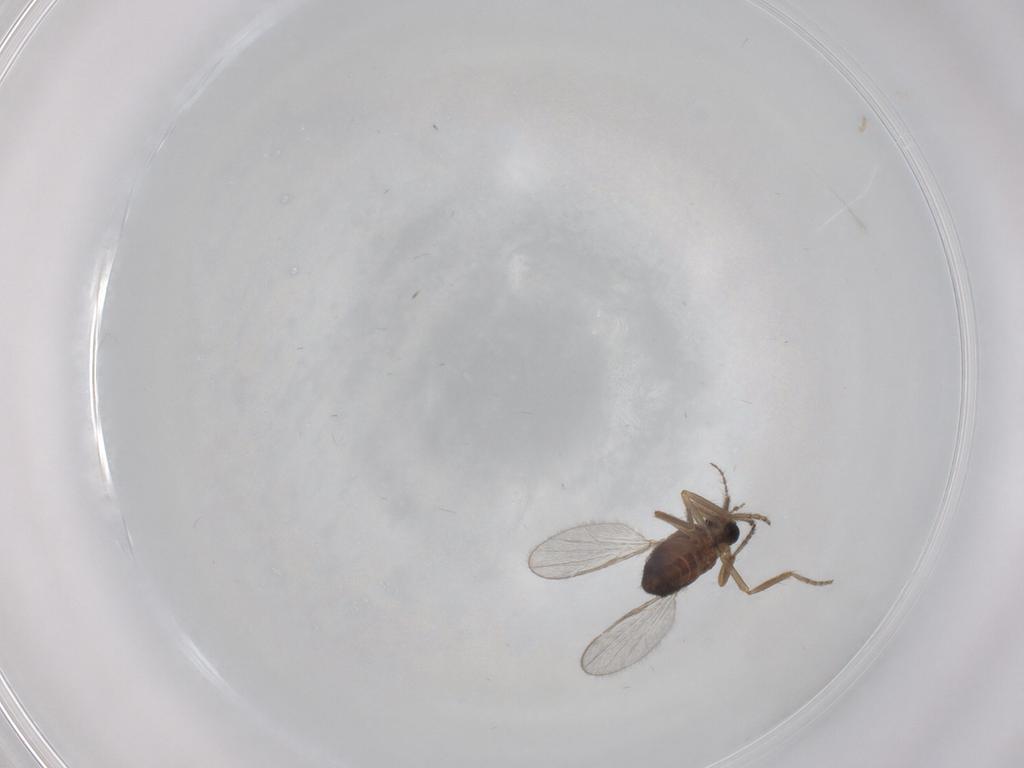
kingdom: Animalia
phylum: Arthropoda
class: Insecta
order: Diptera
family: Ceratopogonidae
